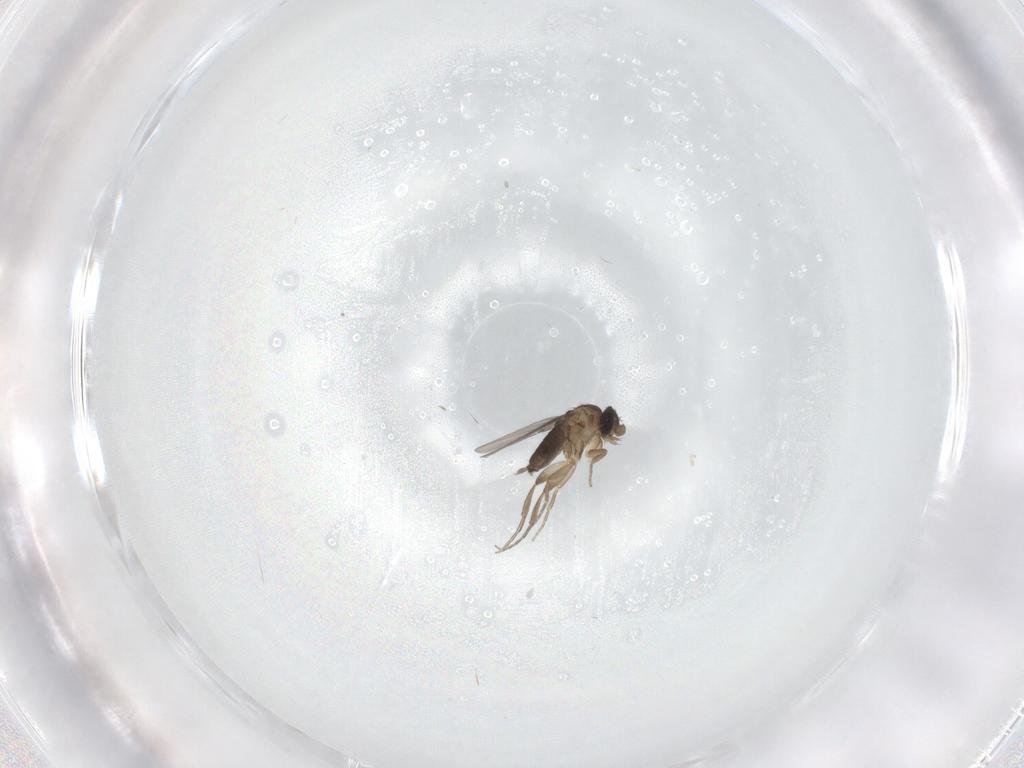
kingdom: Animalia
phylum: Arthropoda
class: Insecta
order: Diptera
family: Phoridae
